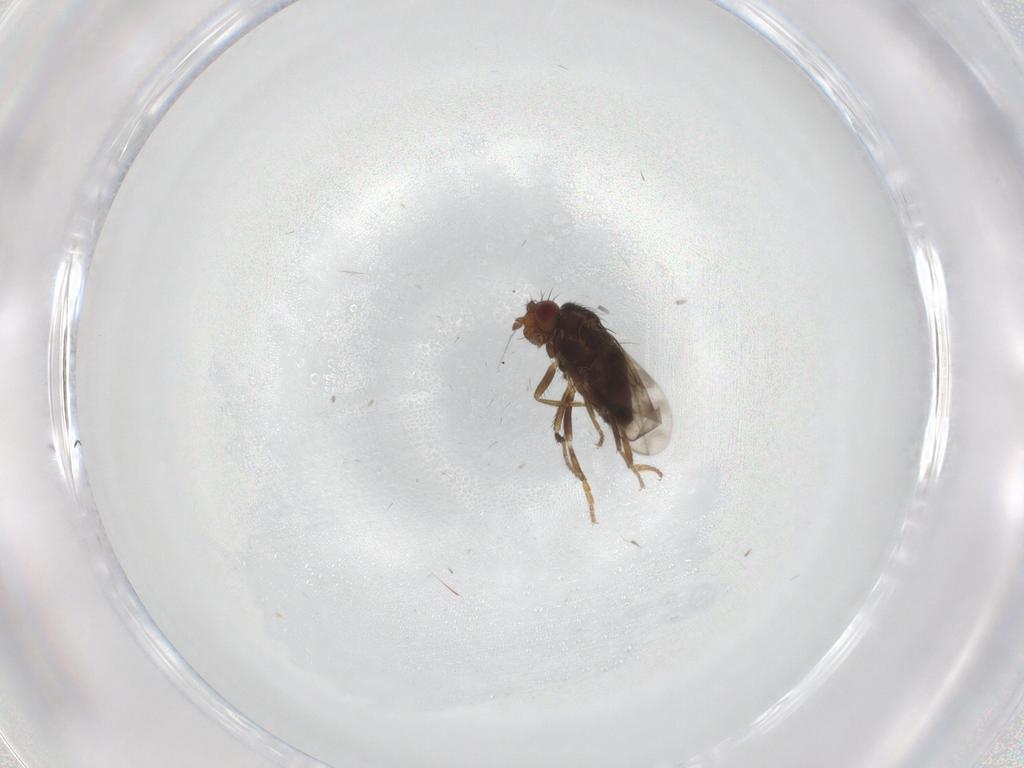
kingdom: Animalia
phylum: Arthropoda
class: Insecta
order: Diptera
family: Sphaeroceridae
